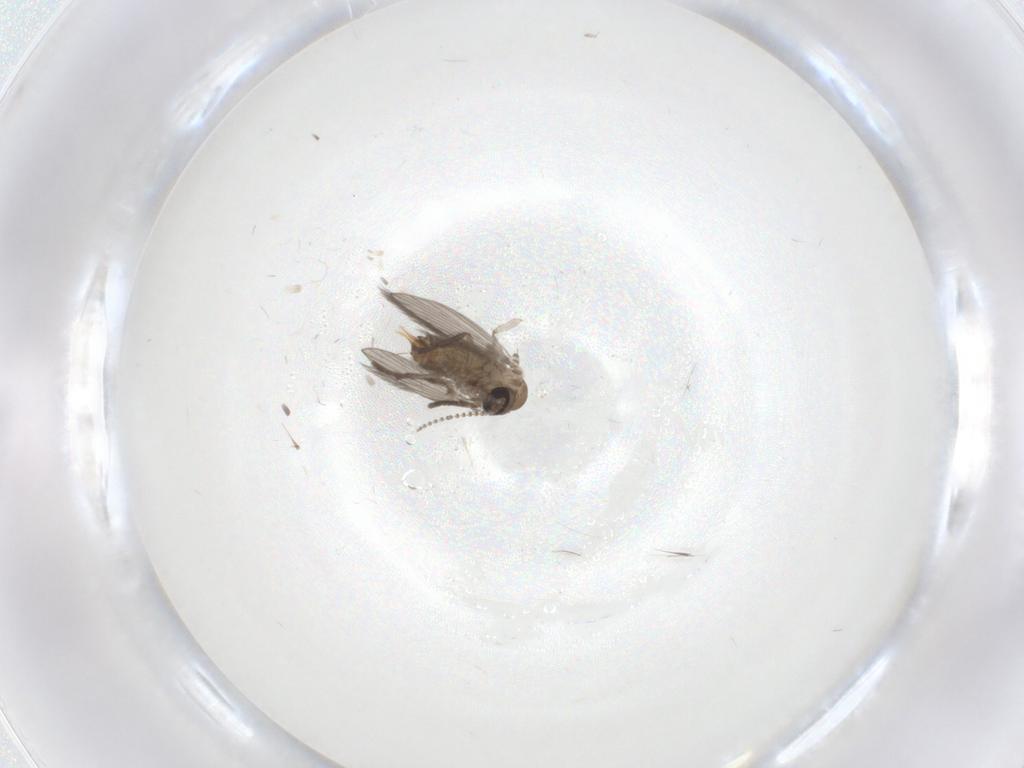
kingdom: Animalia
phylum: Arthropoda
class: Insecta
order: Diptera
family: Psychodidae
